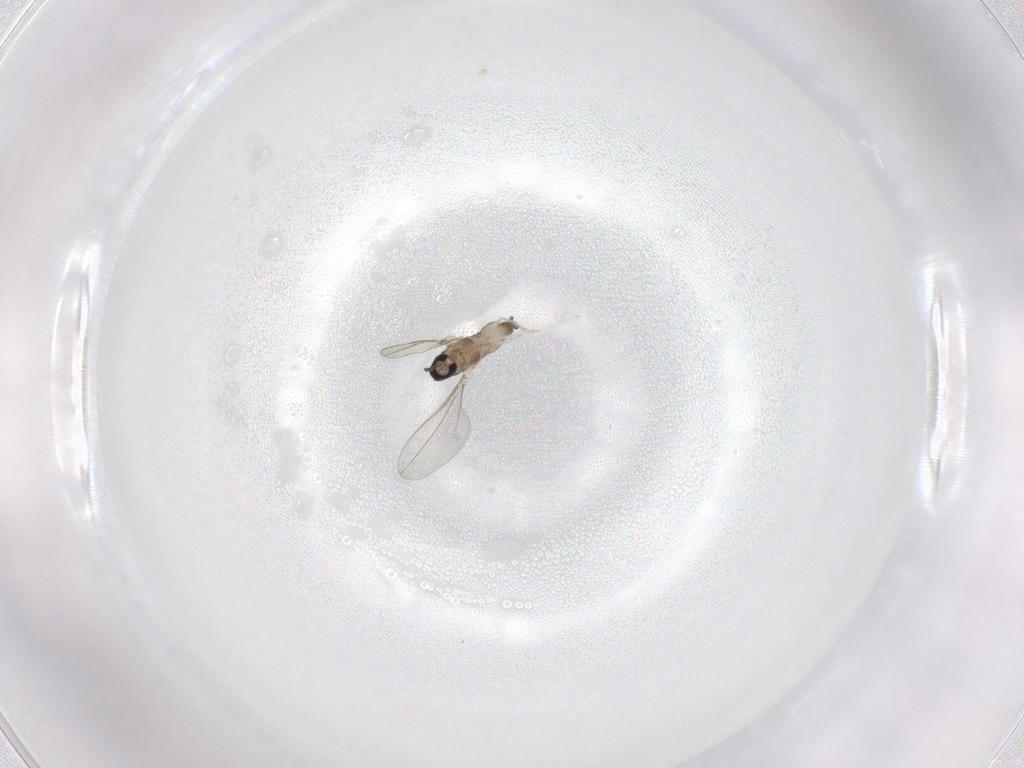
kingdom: Animalia
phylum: Arthropoda
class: Insecta
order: Diptera
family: Cecidomyiidae
